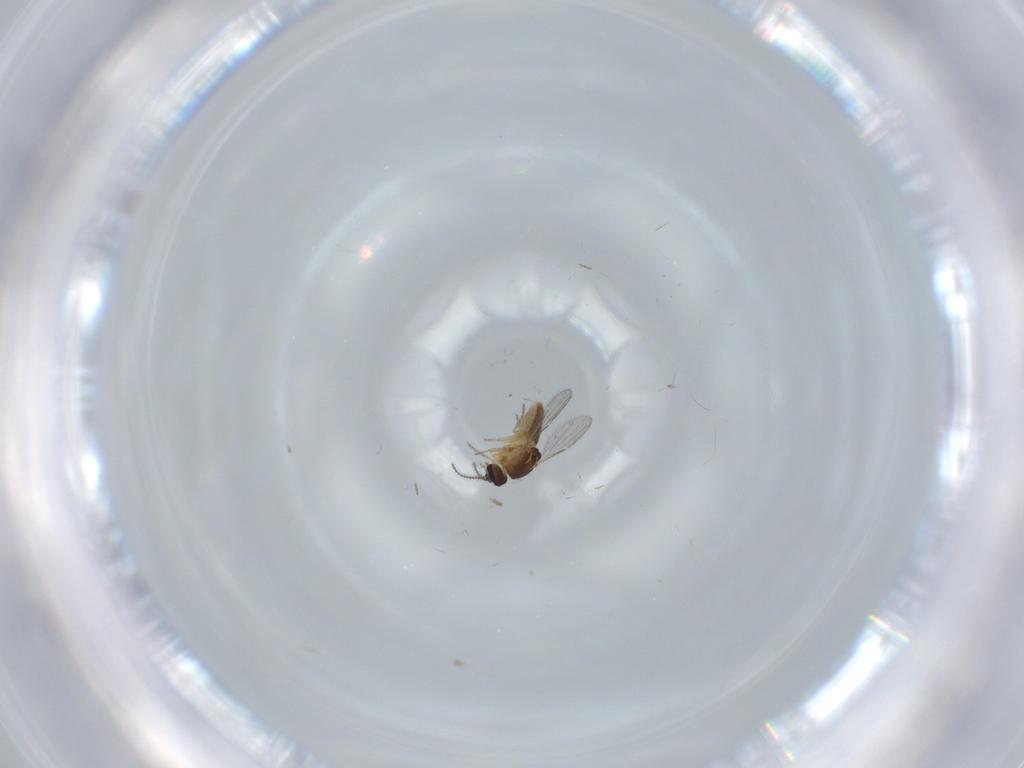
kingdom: Animalia
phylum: Arthropoda
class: Insecta
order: Diptera
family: Ceratopogonidae
